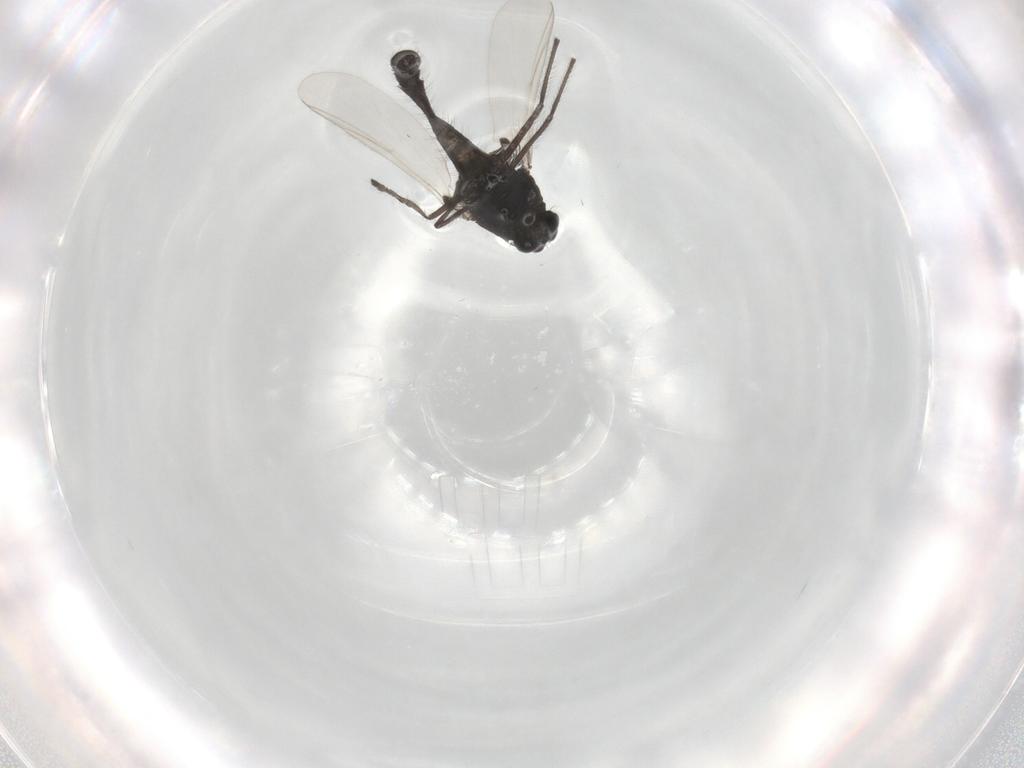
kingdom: Animalia
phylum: Arthropoda
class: Insecta
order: Diptera
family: Chironomidae
